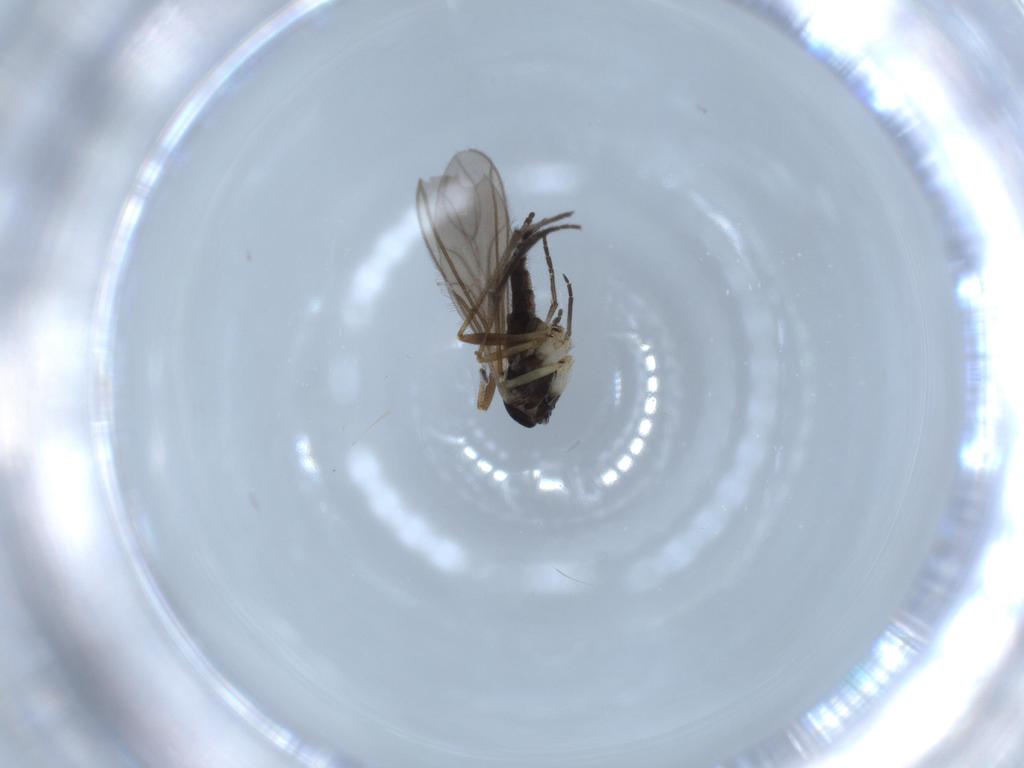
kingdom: Animalia
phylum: Arthropoda
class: Insecta
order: Diptera
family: Sciaridae
